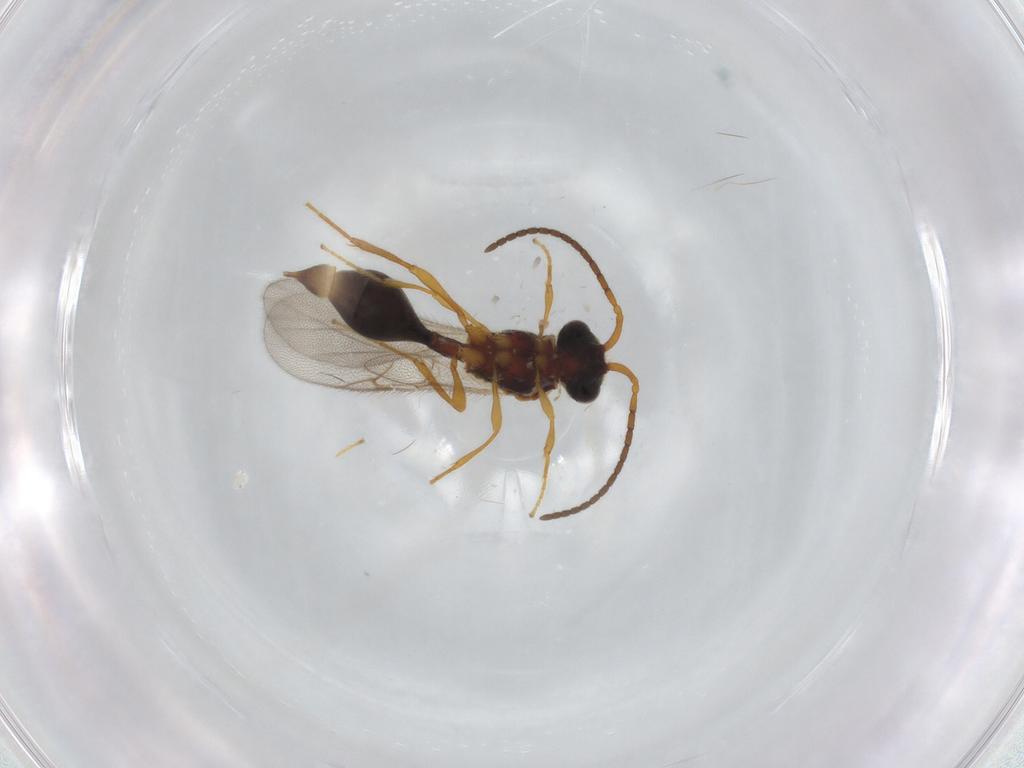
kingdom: Animalia
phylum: Arthropoda
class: Insecta
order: Hymenoptera
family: Diapriidae
